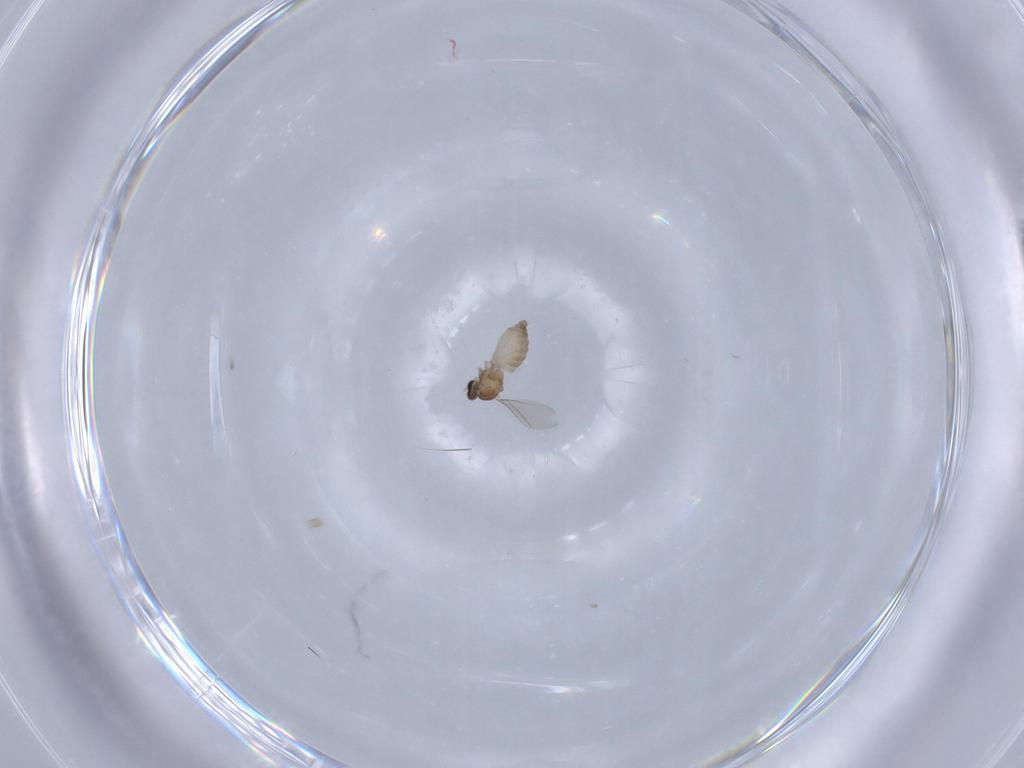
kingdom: Animalia
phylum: Arthropoda
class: Insecta
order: Diptera
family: Cecidomyiidae
